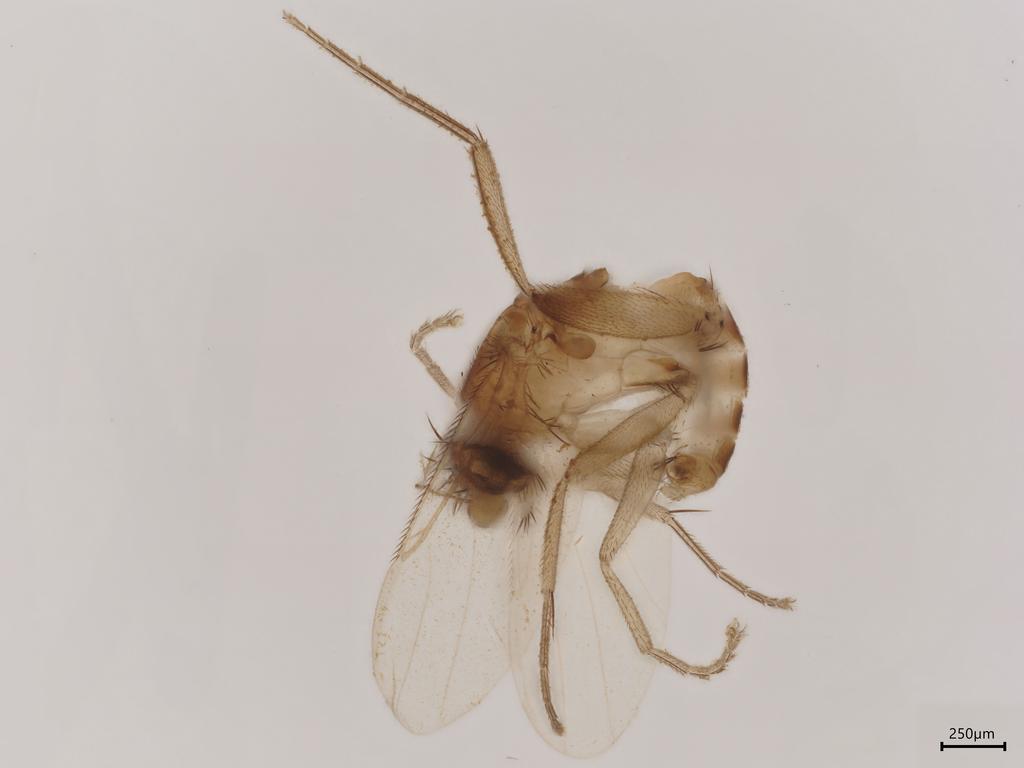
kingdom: Animalia
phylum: Arthropoda
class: Insecta
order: Diptera
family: Phoridae
